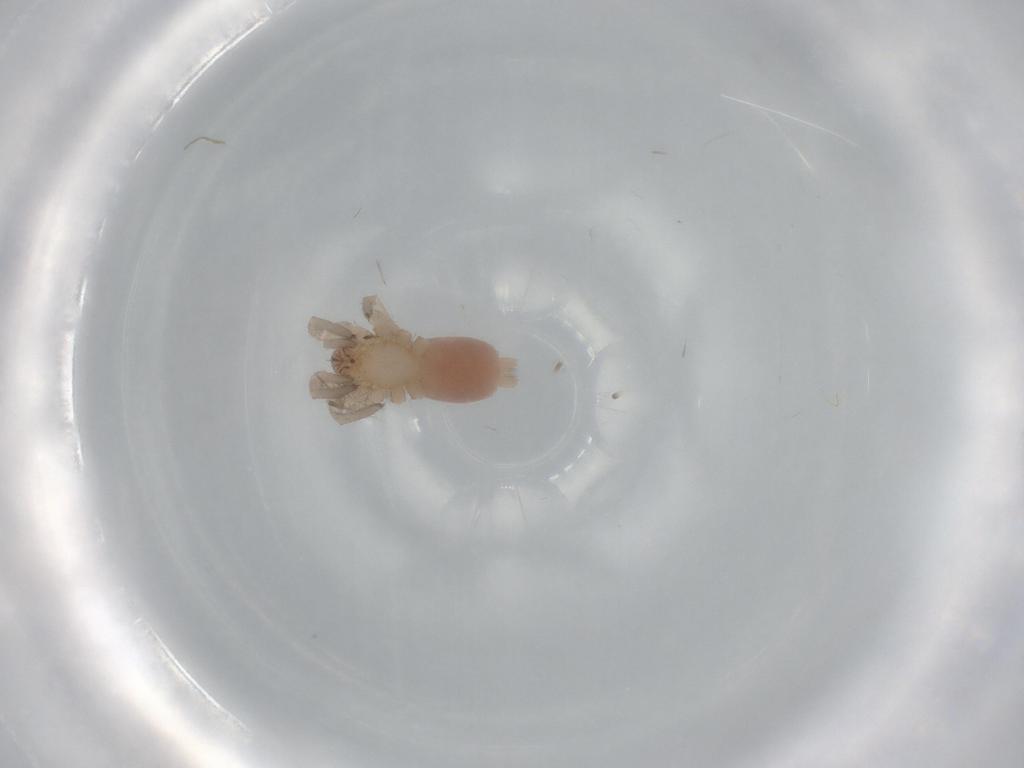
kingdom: Animalia
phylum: Arthropoda
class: Arachnida
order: Araneae
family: Gnaphosidae
